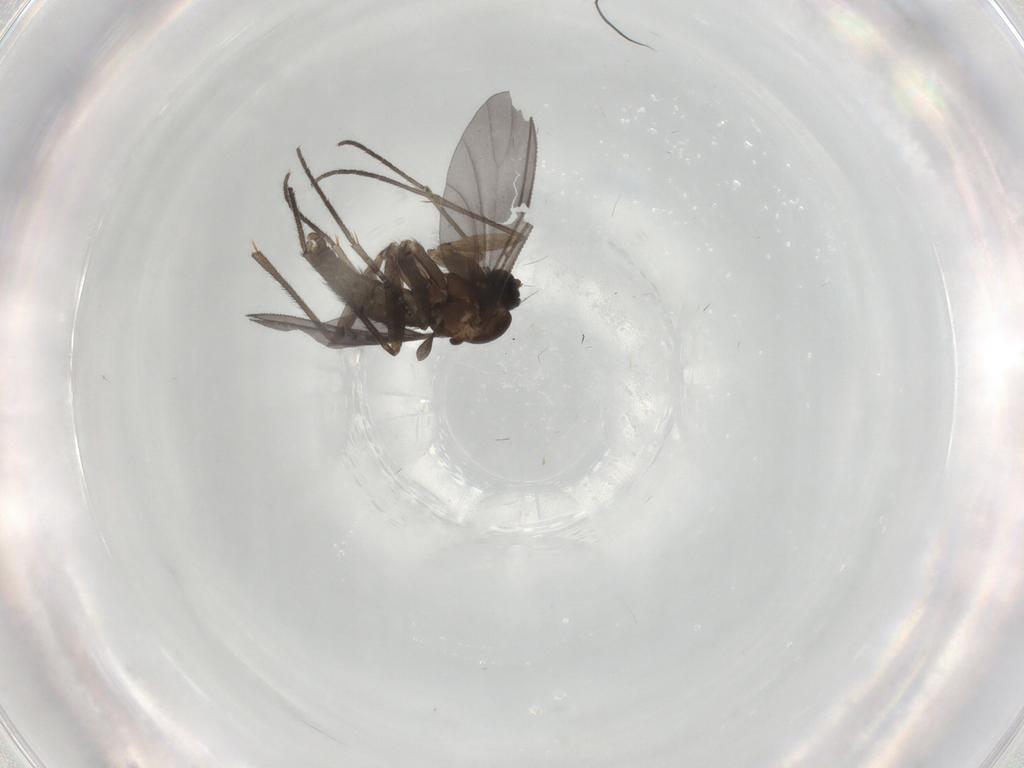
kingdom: Animalia
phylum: Arthropoda
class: Insecta
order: Diptera
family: Sciaridae
